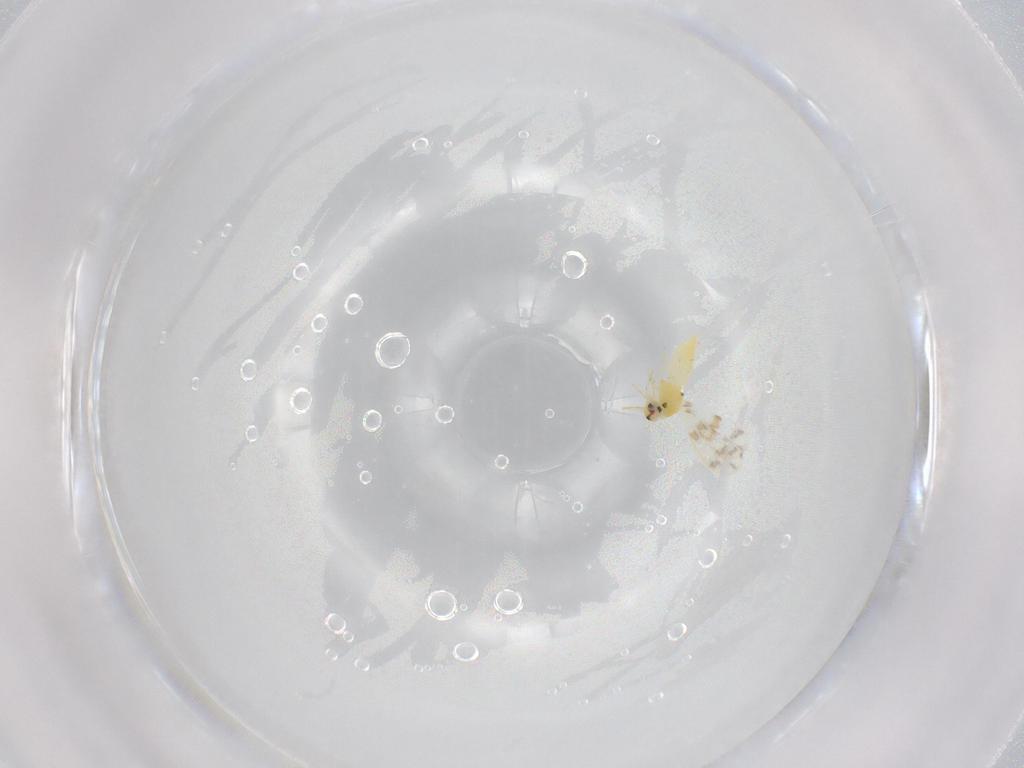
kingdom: Animalia
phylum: Arthropoda
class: Insecta
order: Hemiptera
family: Aleyrodidae
